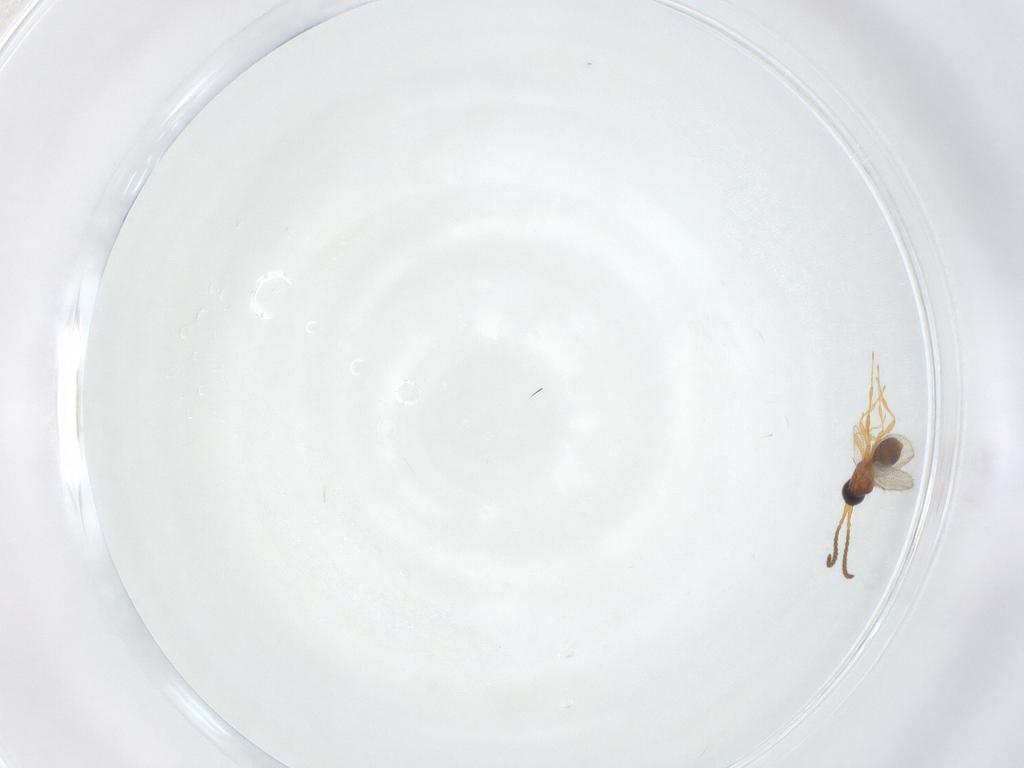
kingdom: Animalia
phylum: Arthropoda
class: Insecta
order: Hymenoptera
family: Diapriidae
